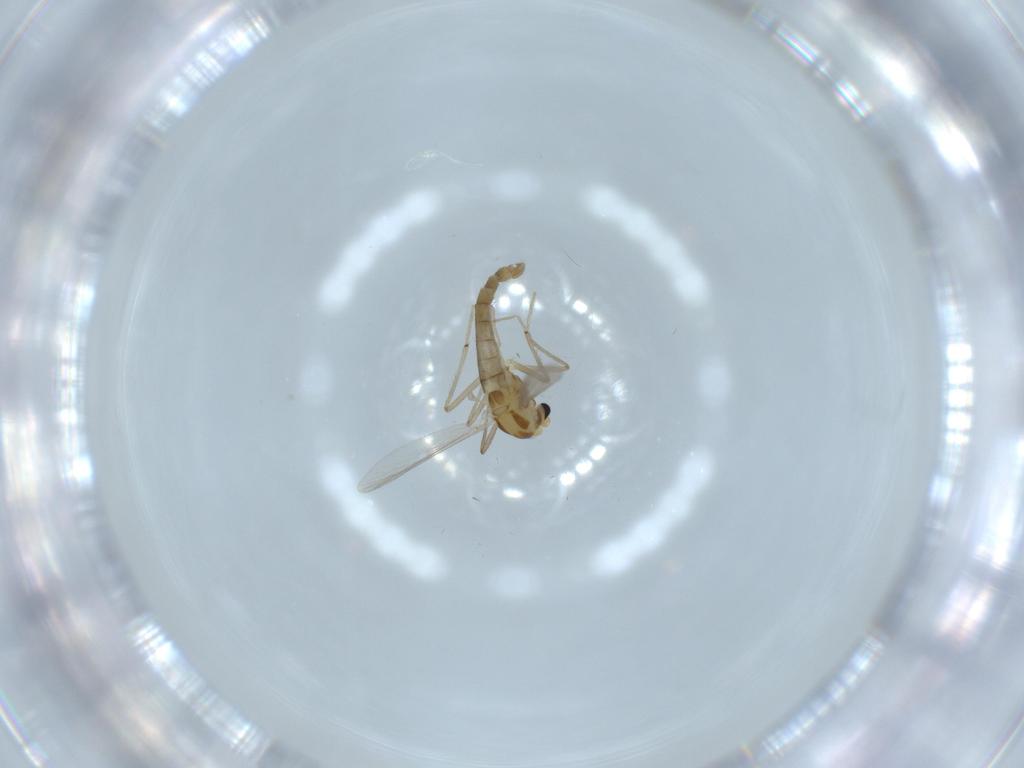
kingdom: Animalia
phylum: Arthropoda
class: Insecta
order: Diptera
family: Chironomidae
